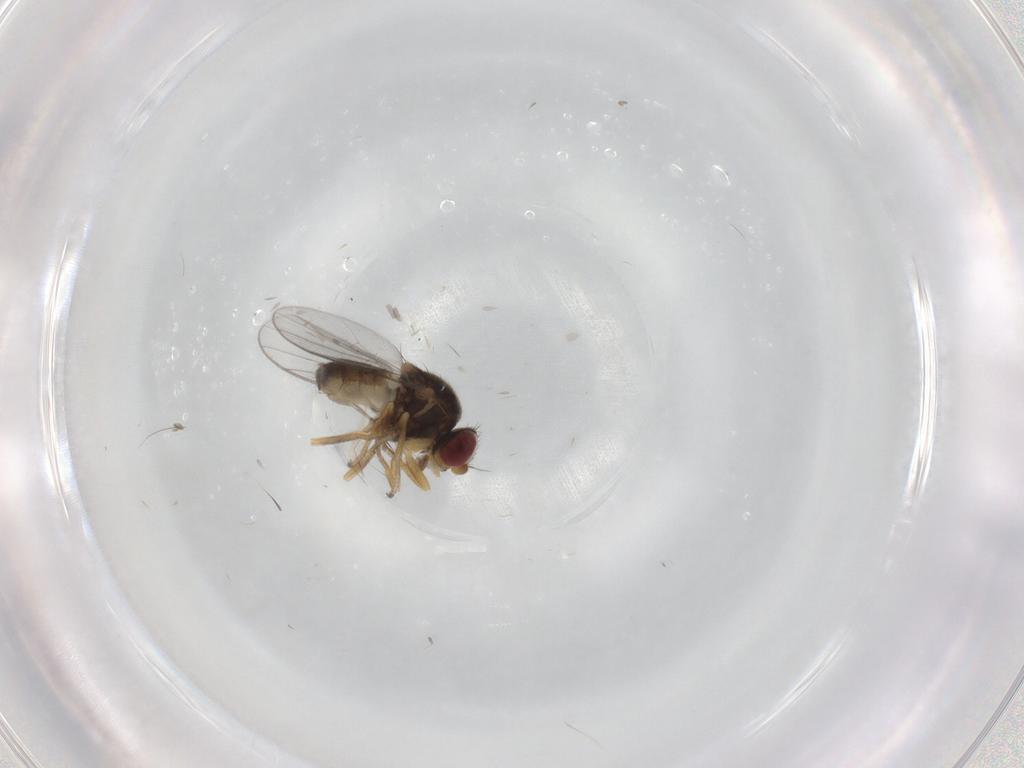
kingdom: Animalia
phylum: Arthropoda
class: Insecta
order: Diptera
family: Chloropidae
